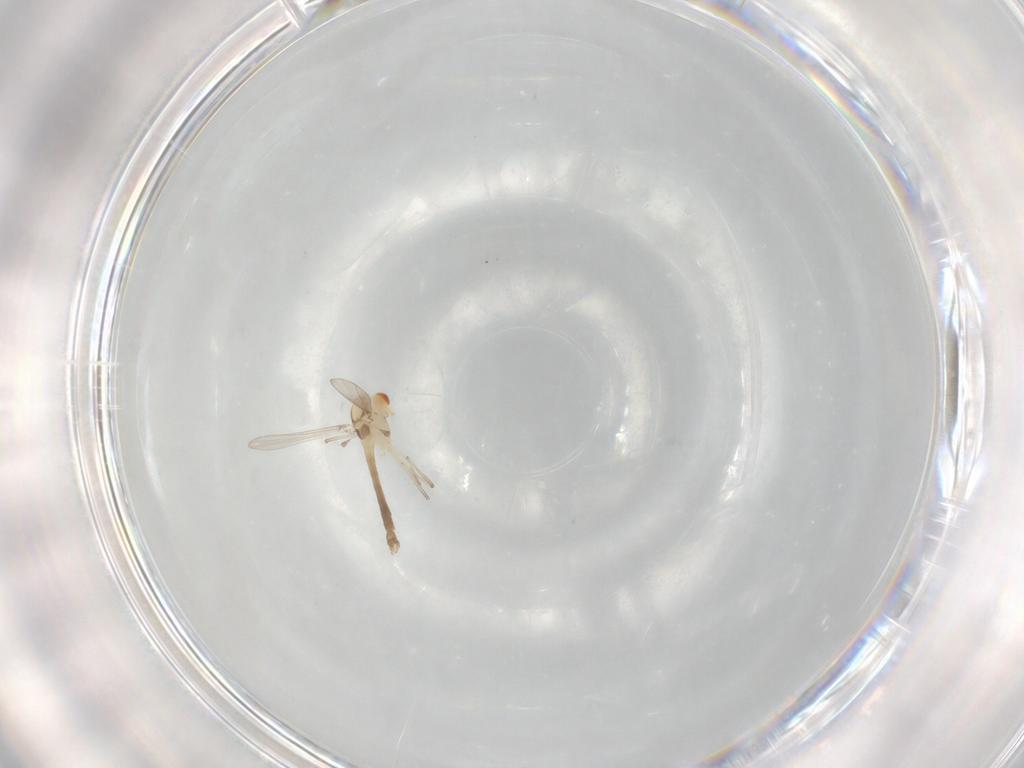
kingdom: Animalia
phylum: Arthropoda
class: Insecta
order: Diptera
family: Chironomidae
